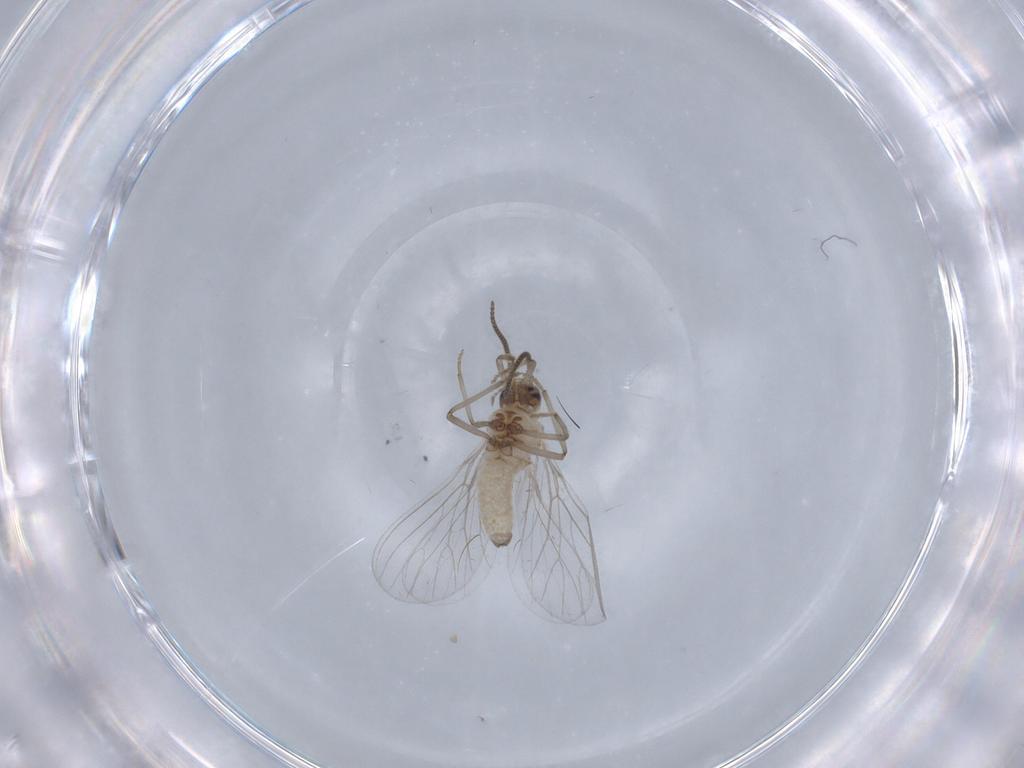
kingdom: Animalia
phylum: Arthropoda
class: Insecta
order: Neuroptera
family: Coniopterygidae
